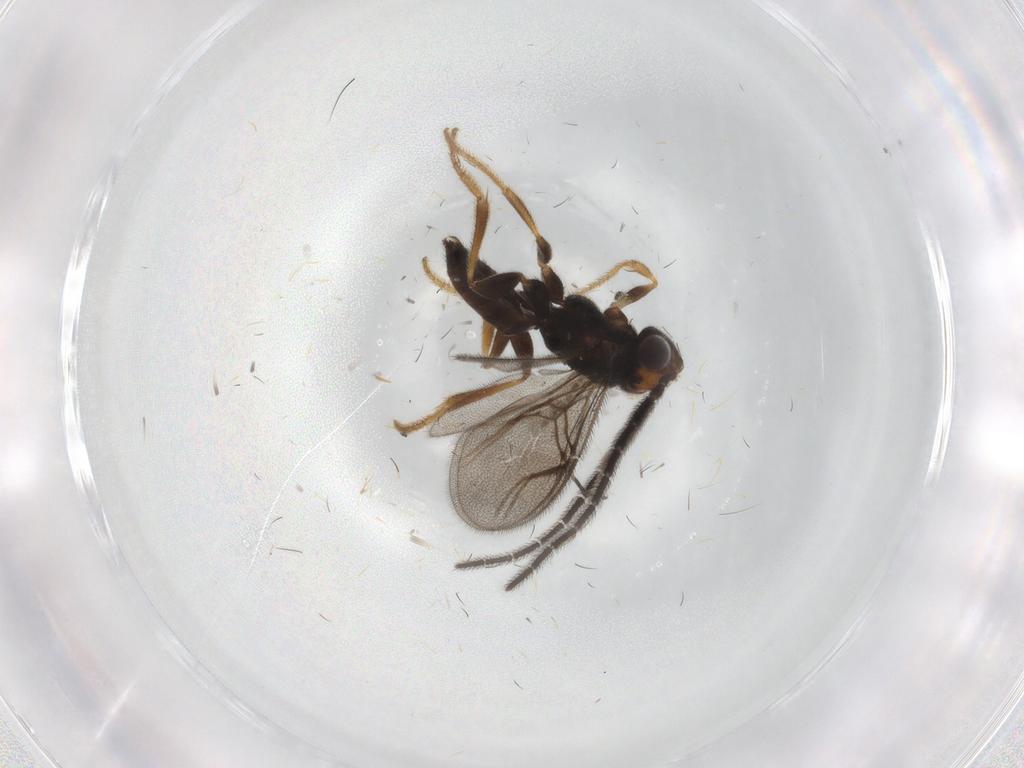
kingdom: Animalia
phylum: Arthropoda
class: Insecta
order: Hymenoptera
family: Dryinidae
